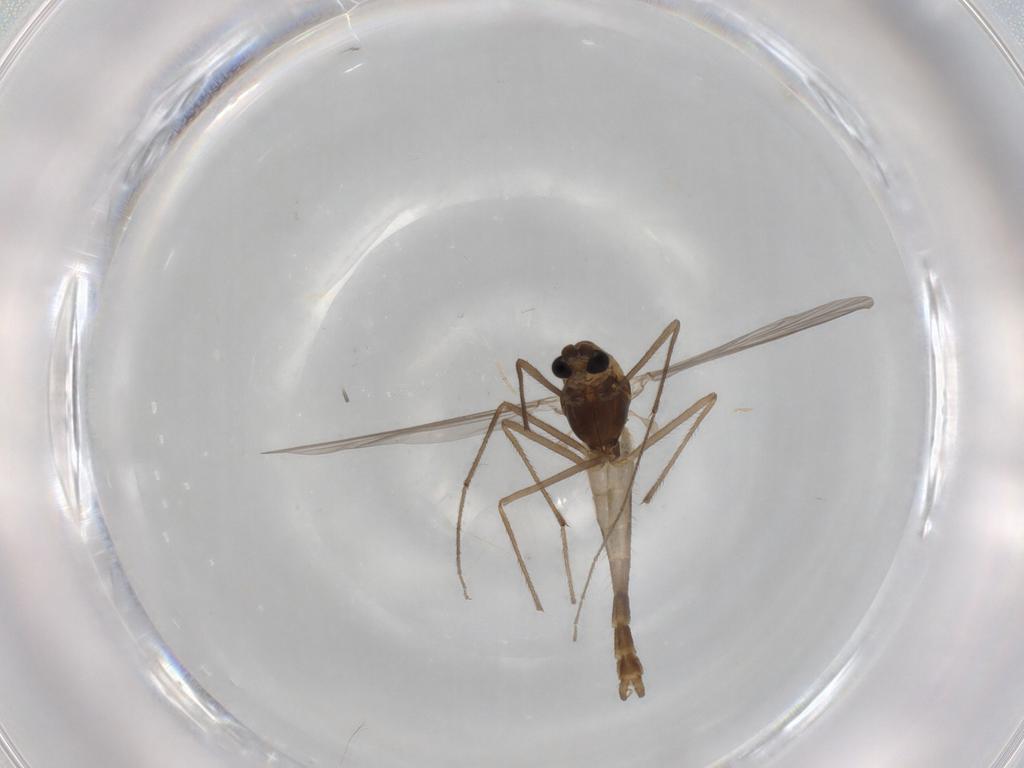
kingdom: Animalia
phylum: Arthropoda
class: Insecta
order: Diptera
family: Chironomidae
